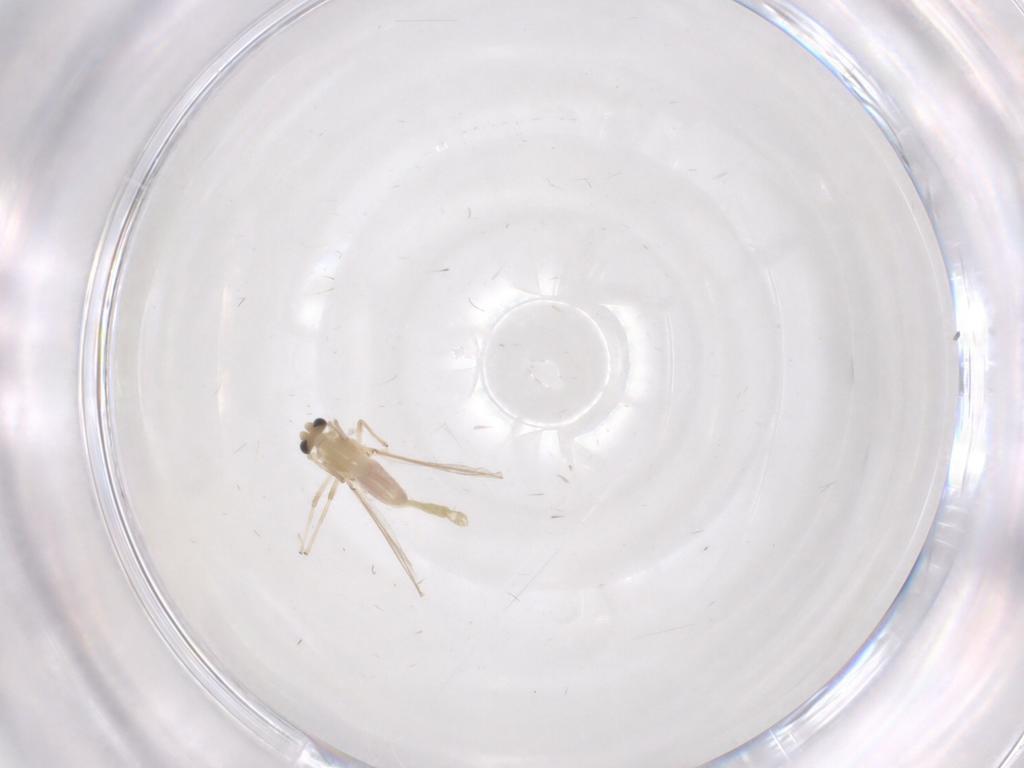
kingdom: Animalia
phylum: Arthropoda
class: Insecta
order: Diptera
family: Chironomidae
